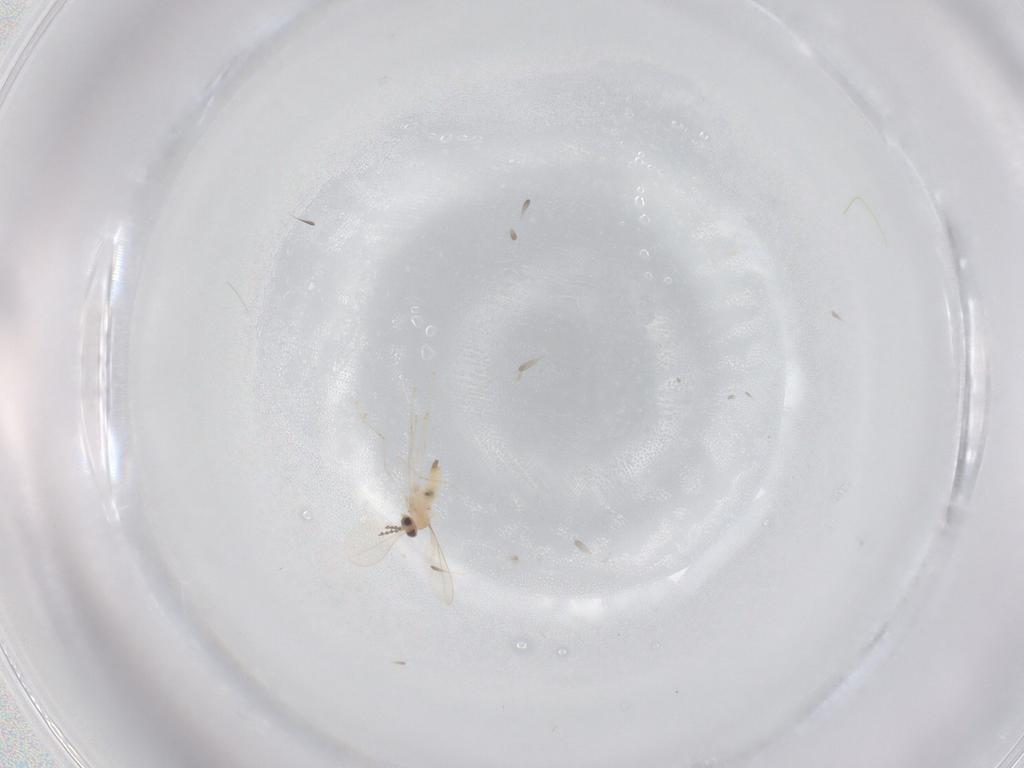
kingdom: Animalia
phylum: Arthropoda
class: Insecta
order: Diptera
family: Cecidomyiidae
